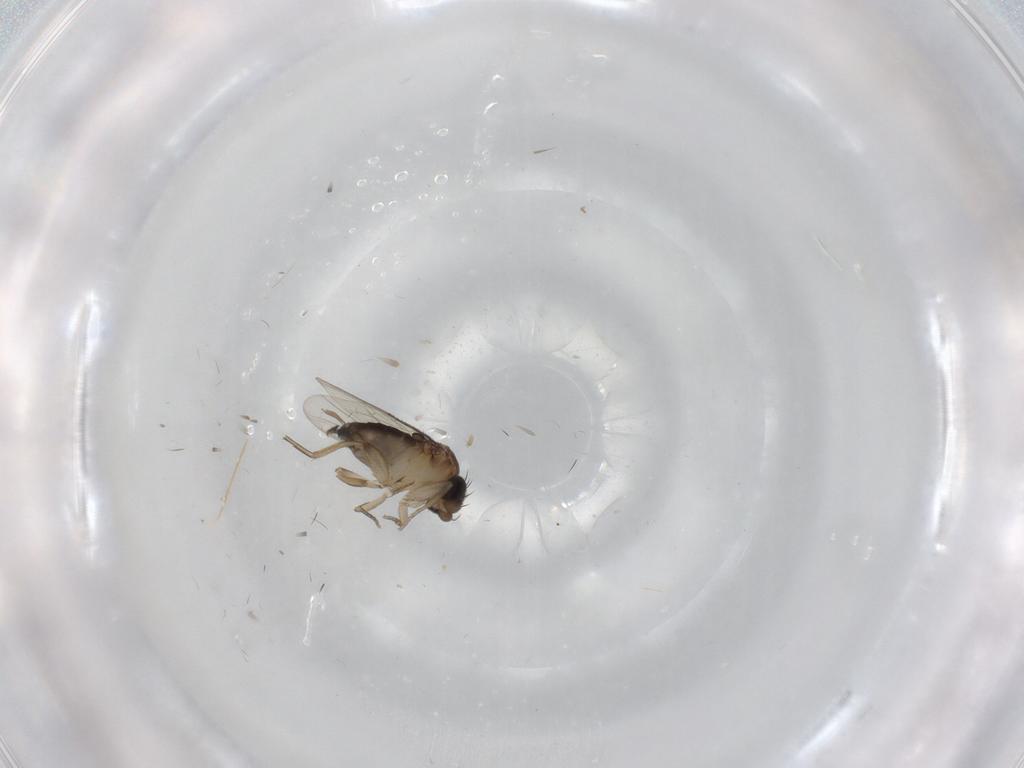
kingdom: Animalia
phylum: Arthropoda
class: Insecta
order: Diptera
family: Cecidomyiidae
